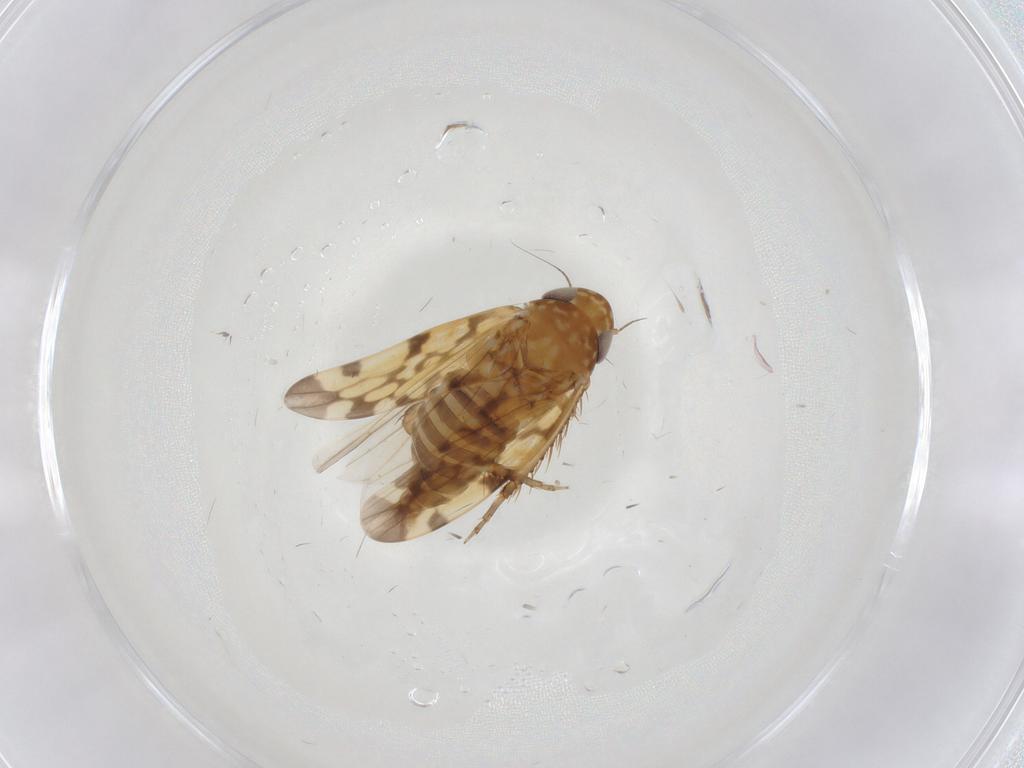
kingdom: Animalia
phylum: Arthropoda
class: Insecta
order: Hemiptera
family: Cicadellidae
